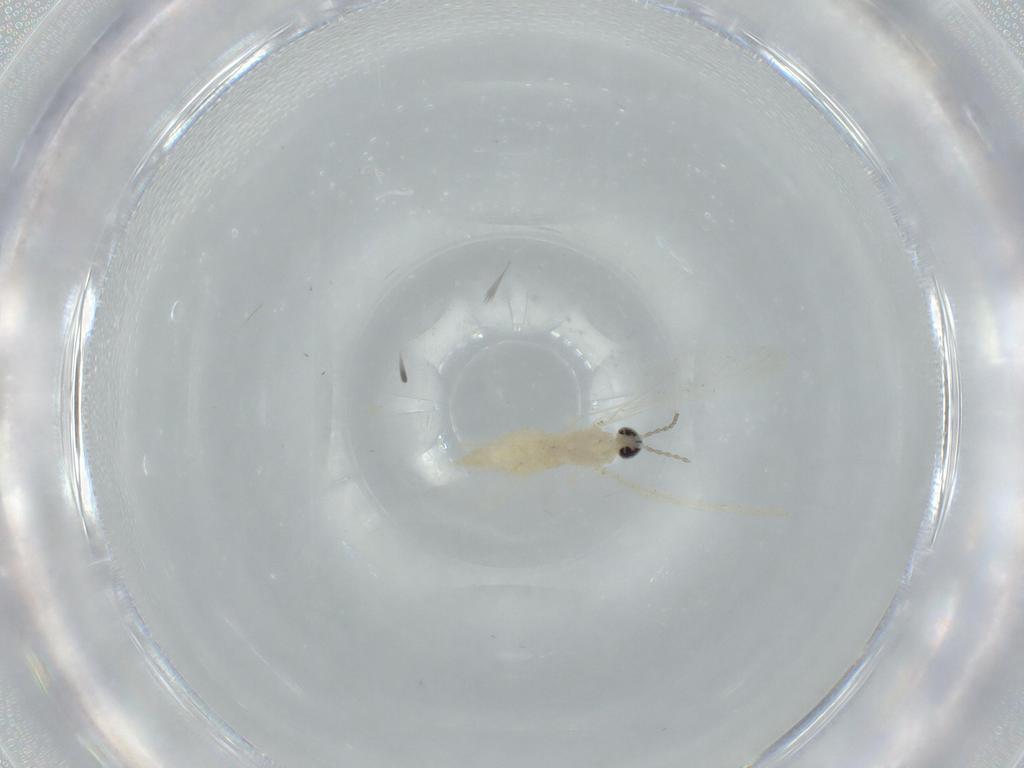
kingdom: Animalia
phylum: Arthropoda
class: Insecta
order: Diptera
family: Cecidomyiidae
